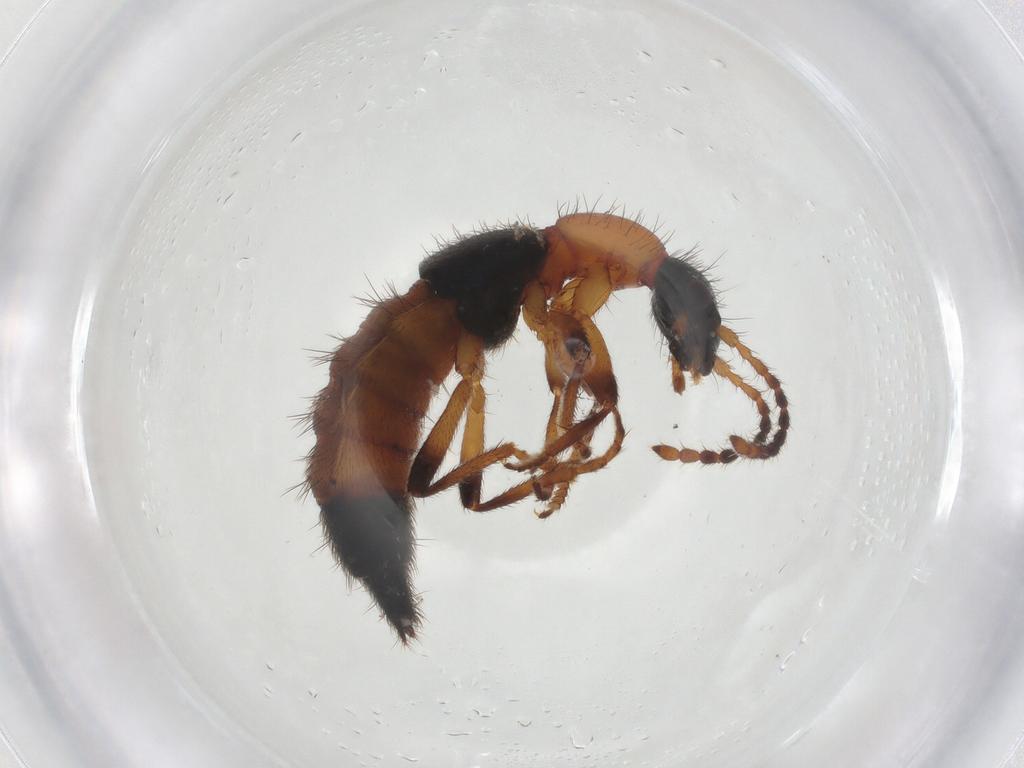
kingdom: Animalia
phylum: Arthropoda
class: Insecta
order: Coleoptera
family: Staphylinidae
